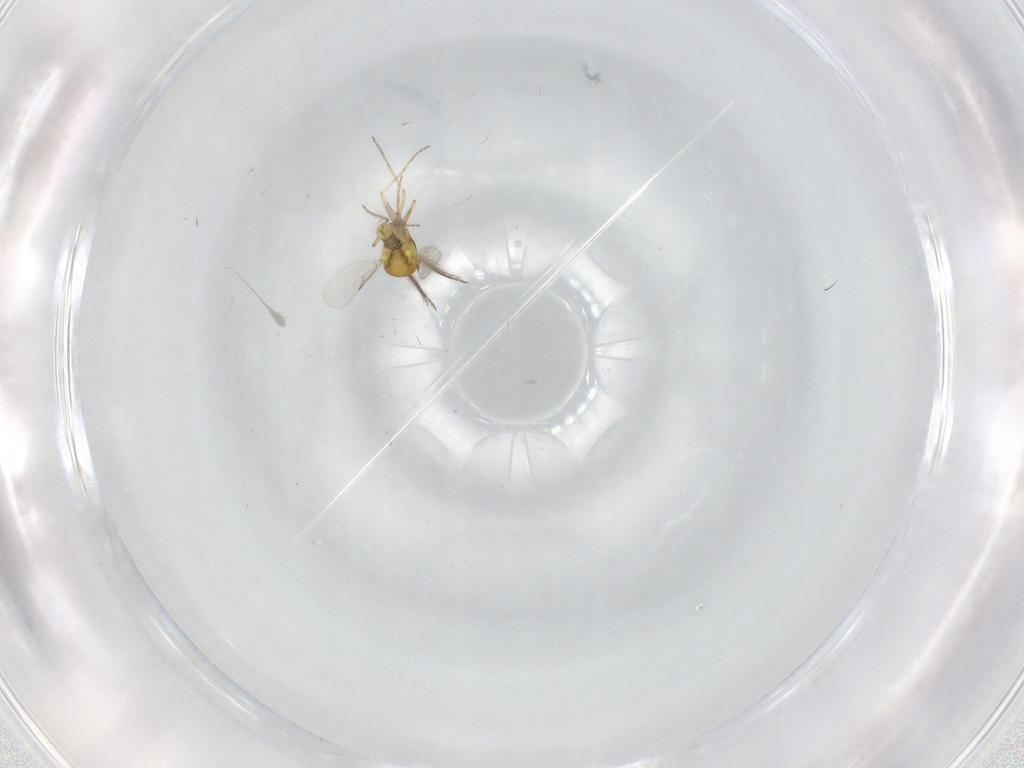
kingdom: Animalia
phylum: Arthropoda
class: Insecta
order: Diptera
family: Ceratopogonidae
